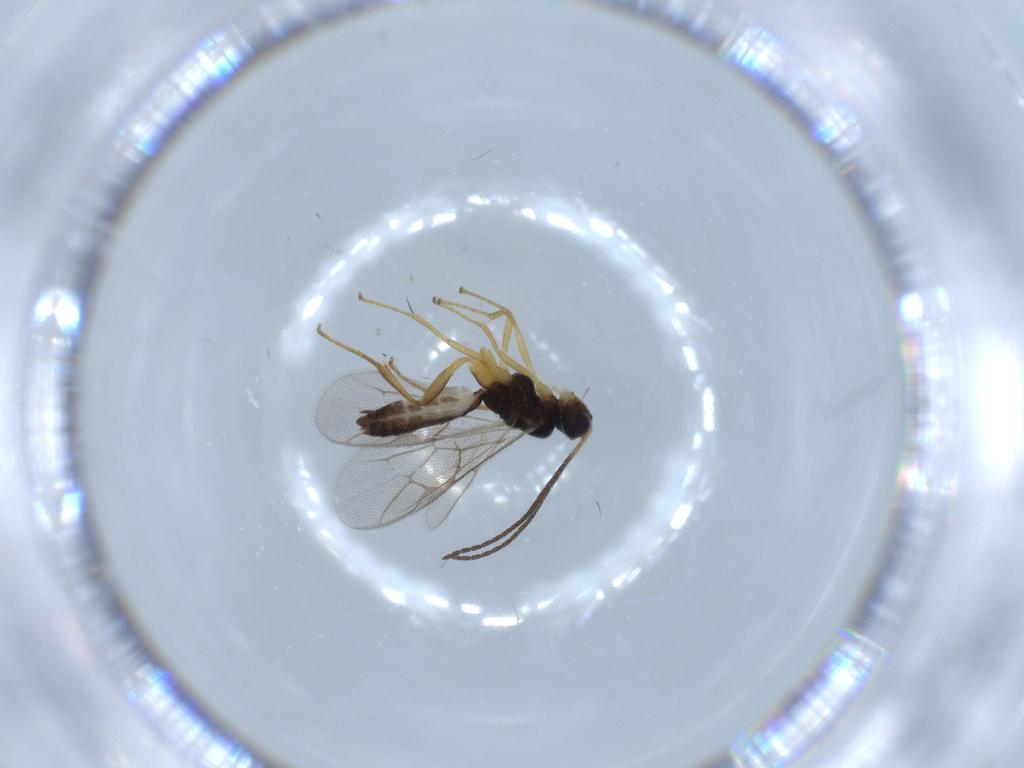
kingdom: Animalia
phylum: Arthropoda
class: Insecta
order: Hymenoptera
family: Ichneumonidae
